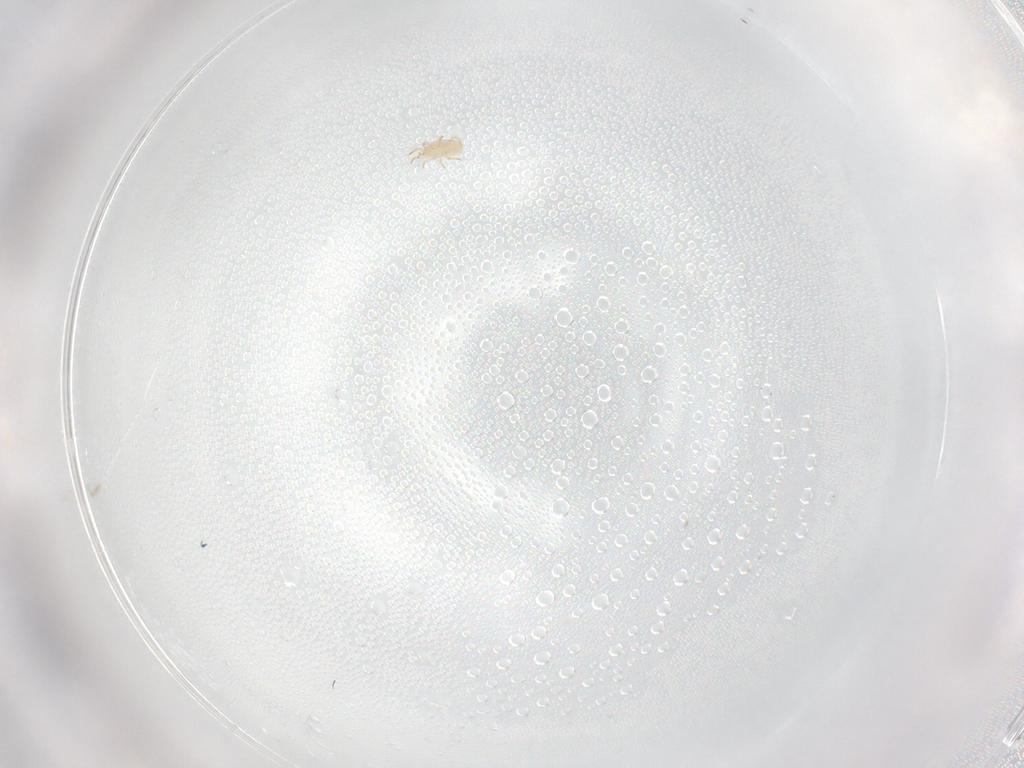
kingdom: Animalia
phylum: Arthropoda
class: Arachnida
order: Mesostigmata
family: Phytoseiidae
